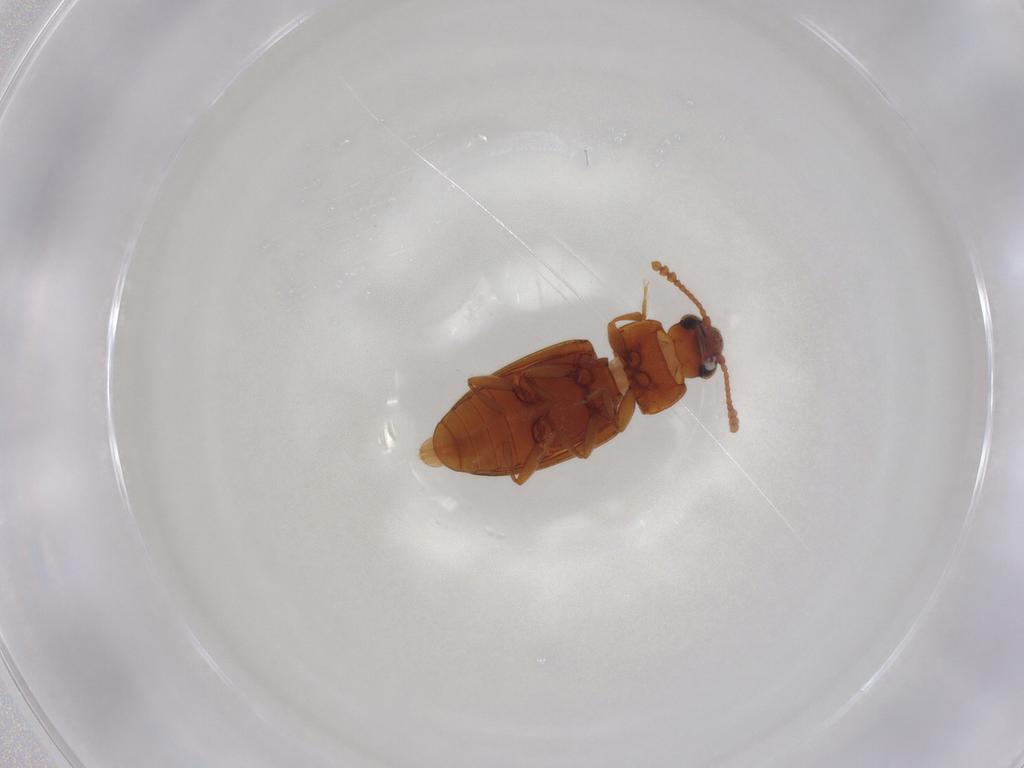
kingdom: Animalia
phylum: Arthropoda
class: Insecta
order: Coleoptera
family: Erotylidae
